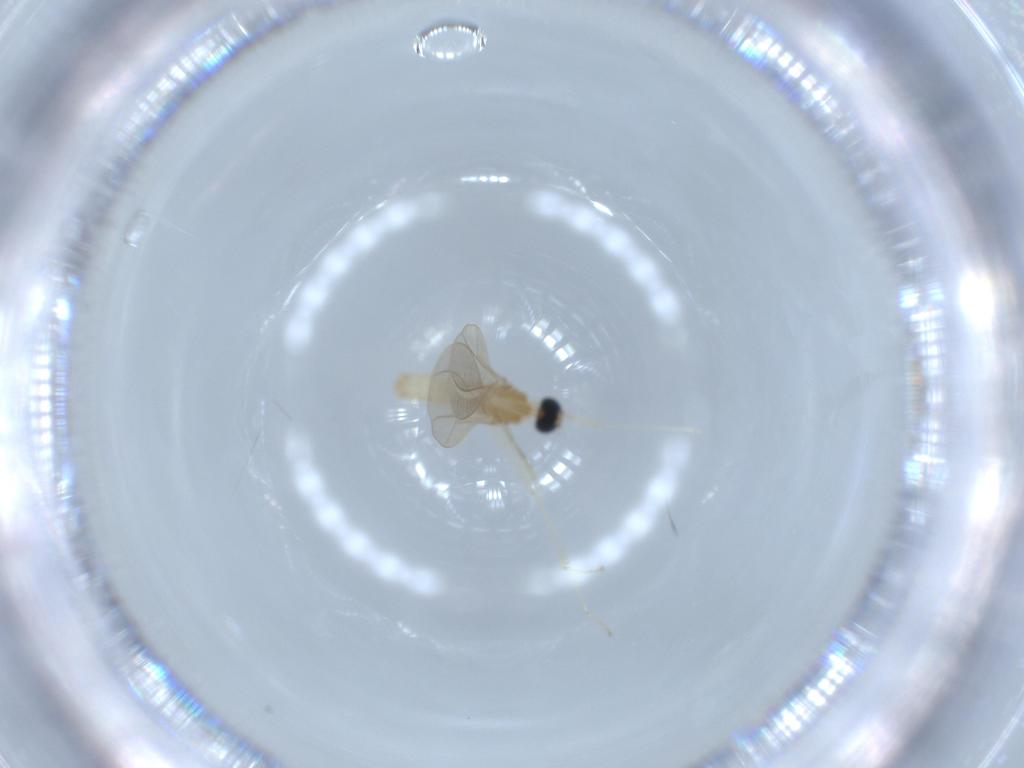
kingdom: Animalia
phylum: Arthropoda
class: Insecta
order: Diptera
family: Cecidomyiidae
